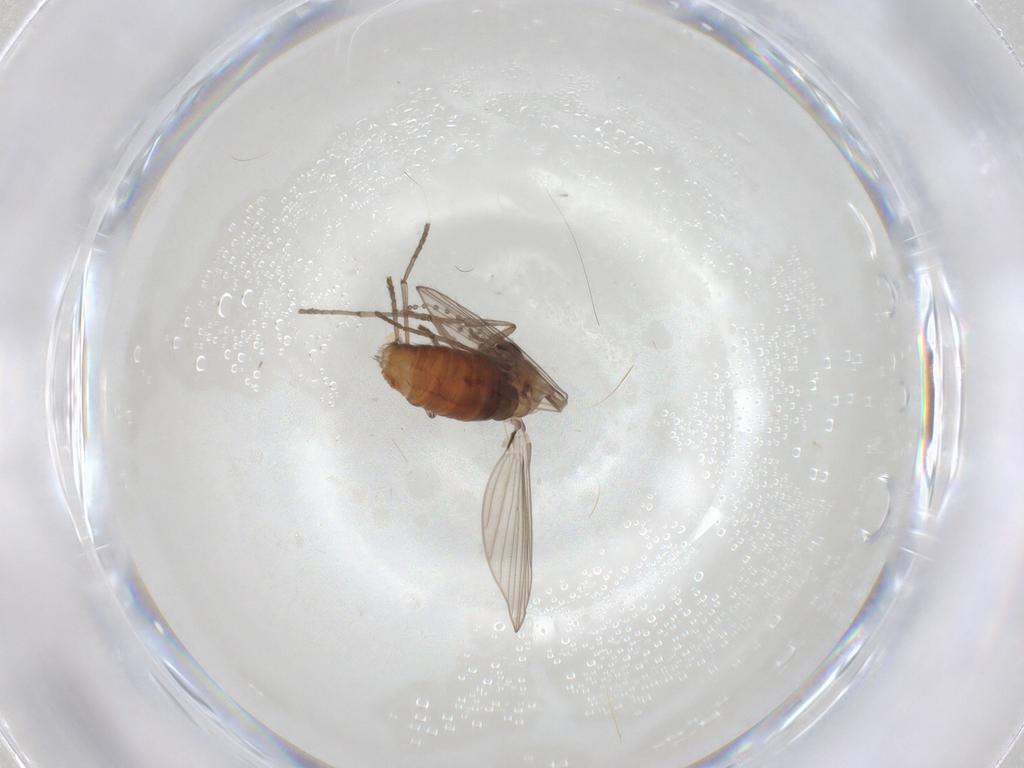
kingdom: Animalia
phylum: Arthropoda
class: Insecta
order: Diptera
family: Psychodidae
